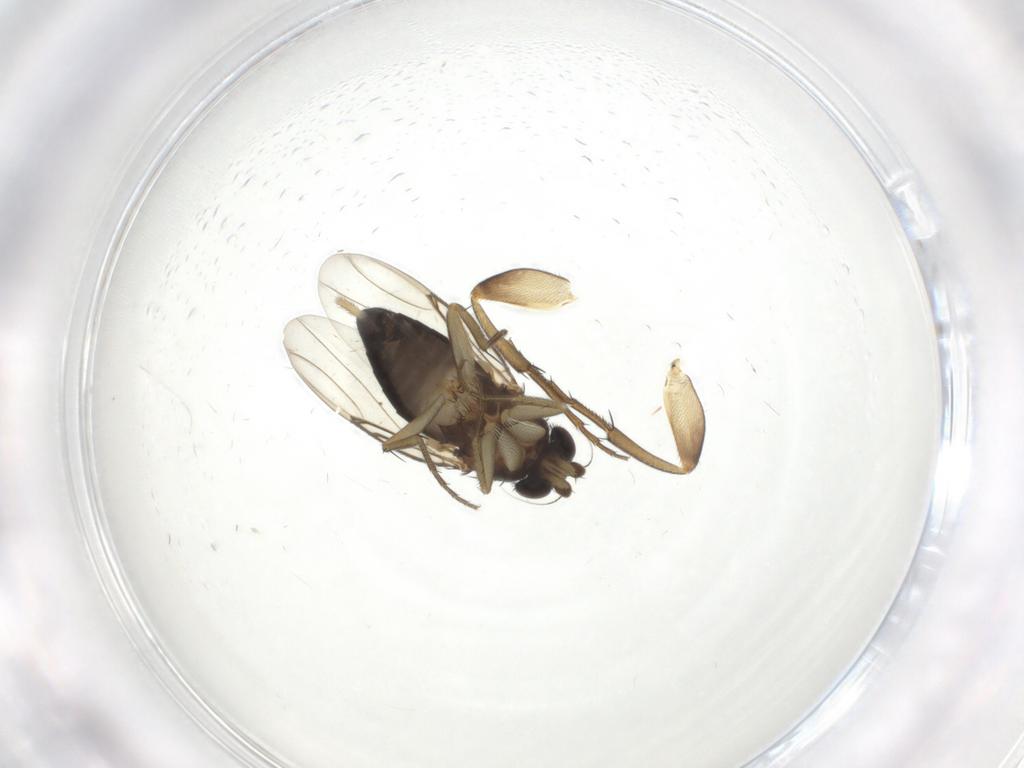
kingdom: Animalia
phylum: Arthropoda
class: Insecta
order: Diptera
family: Phoridae
